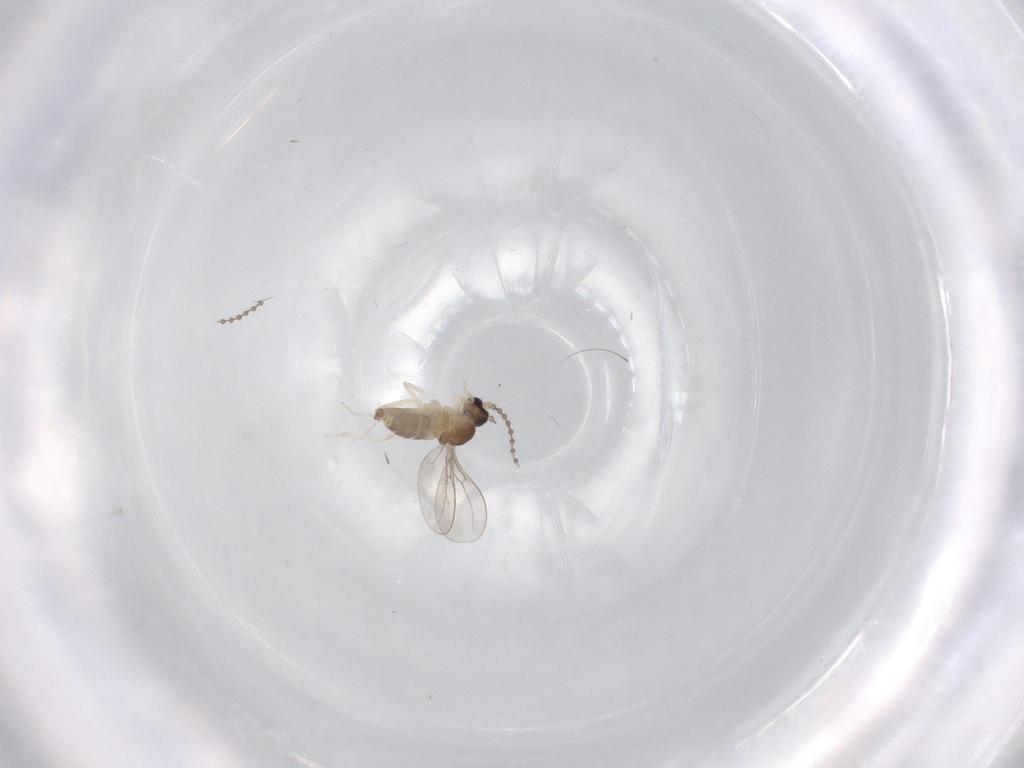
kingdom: Animalia
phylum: Arthropoda
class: Insecta
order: Diptera
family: Cecidomyiidae
